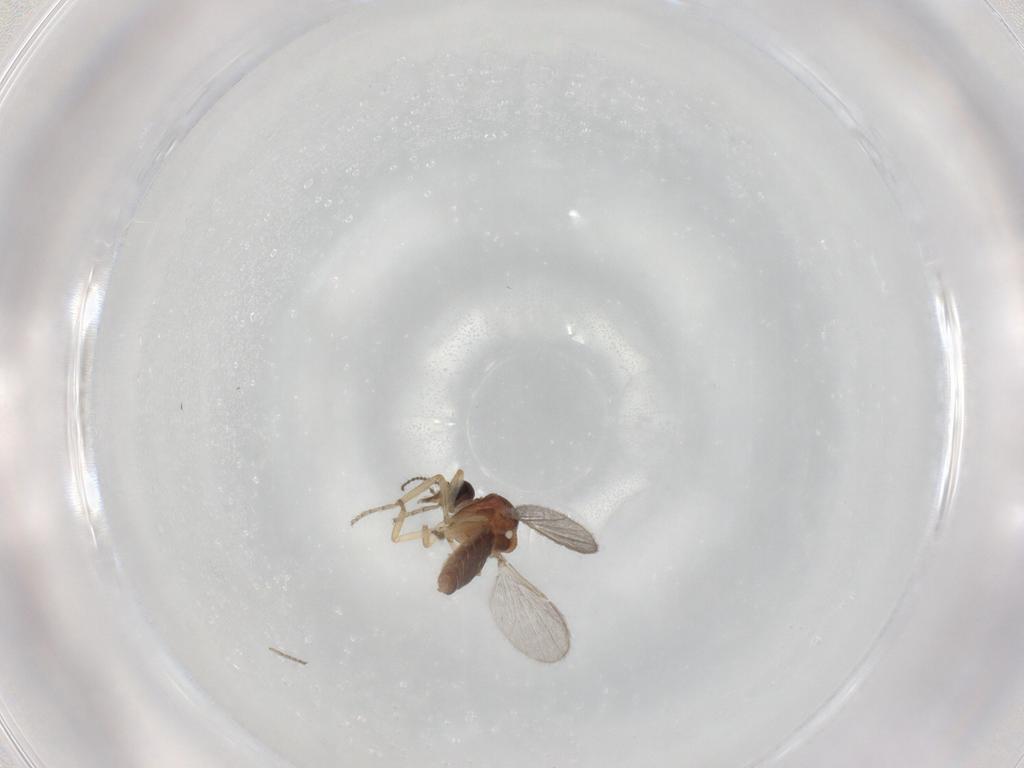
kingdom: Animalia
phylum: Arthropoda
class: Insecta
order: Diptera
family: Ceratopogonidae
